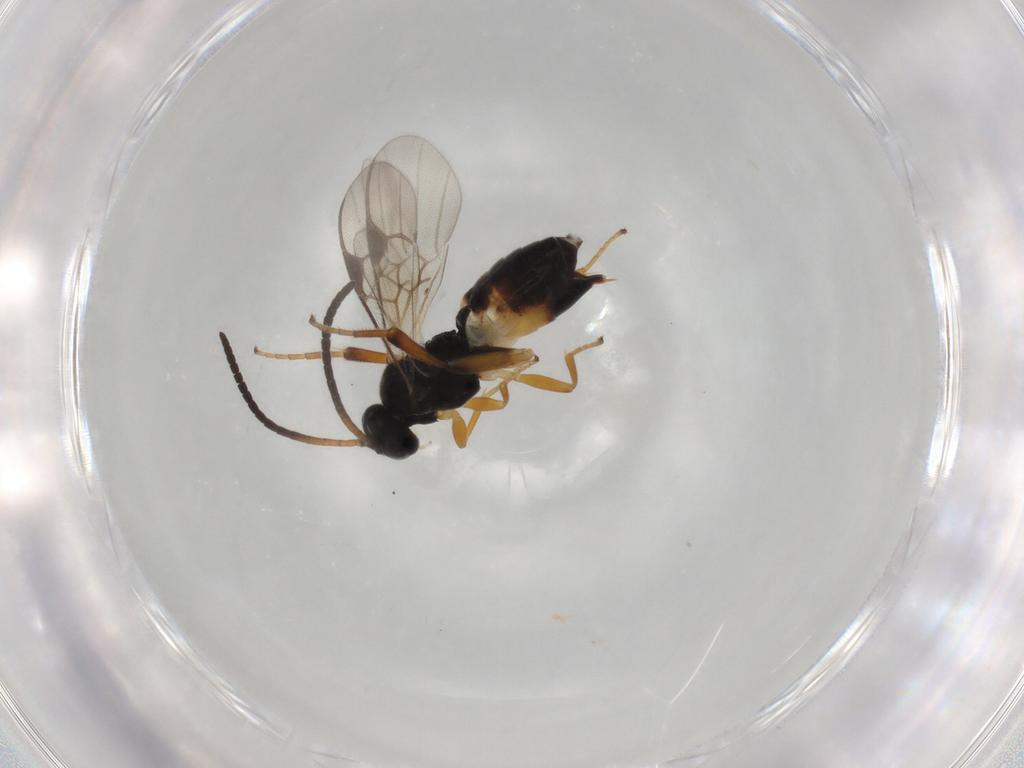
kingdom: Animalia
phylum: Arthropoda
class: Insecta
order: Hymenoptera
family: Braconidae
